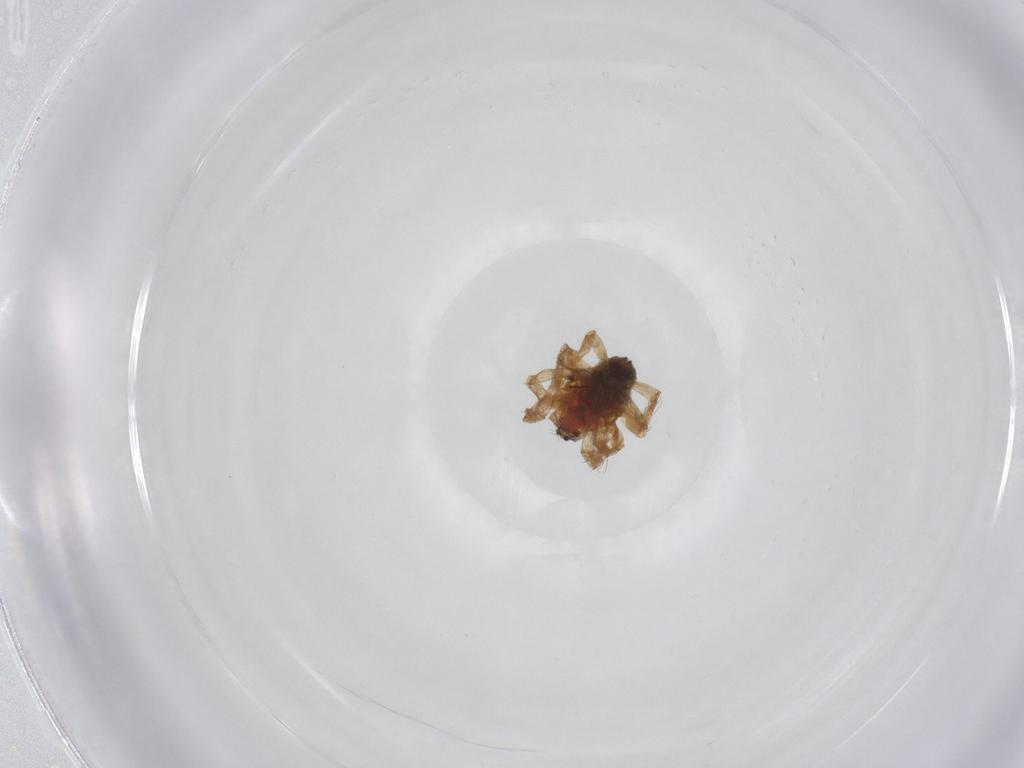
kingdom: Animalia
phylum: Arthropoda
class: Arachnida
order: Araneae
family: Araneidae
